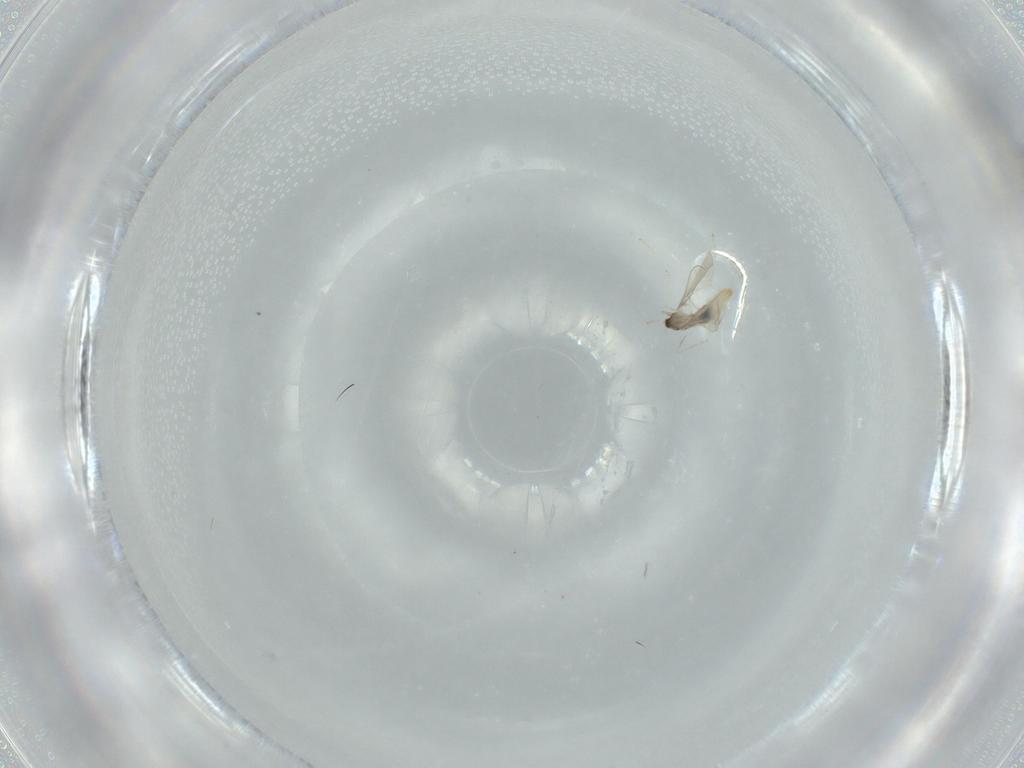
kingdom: Animalia
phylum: Arthropoda
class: Insecta
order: Diptera
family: Cecidomyiidae
